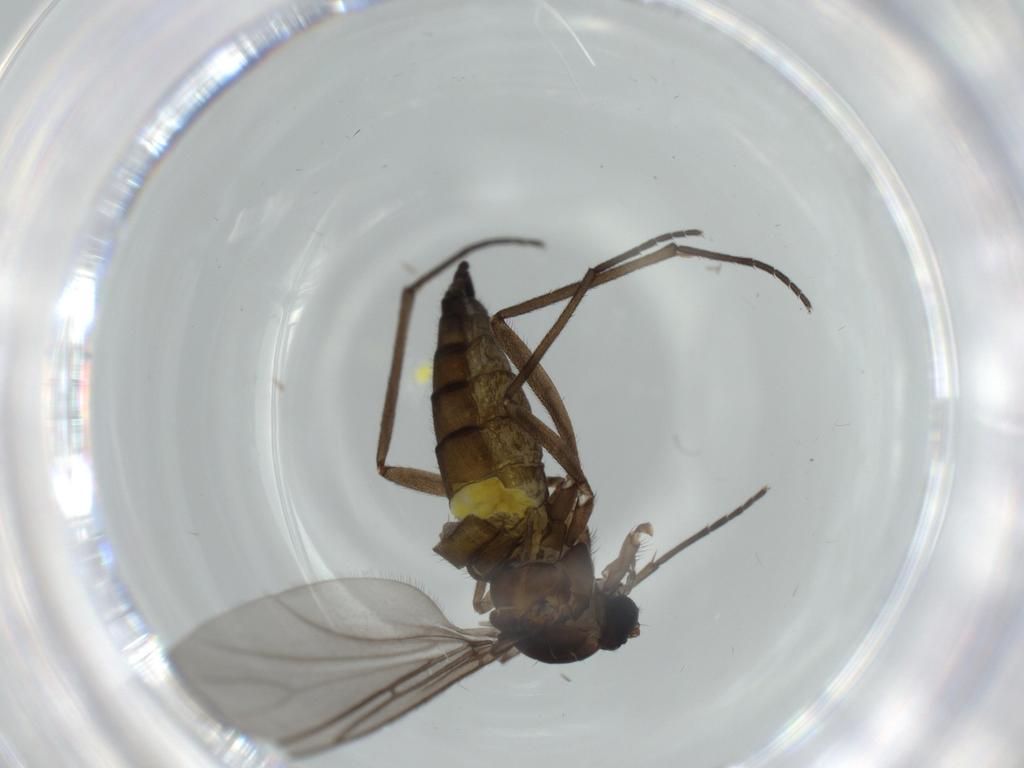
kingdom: Animalia
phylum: Arthropoda
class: Insecta
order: Diptera
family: Sciaridae
